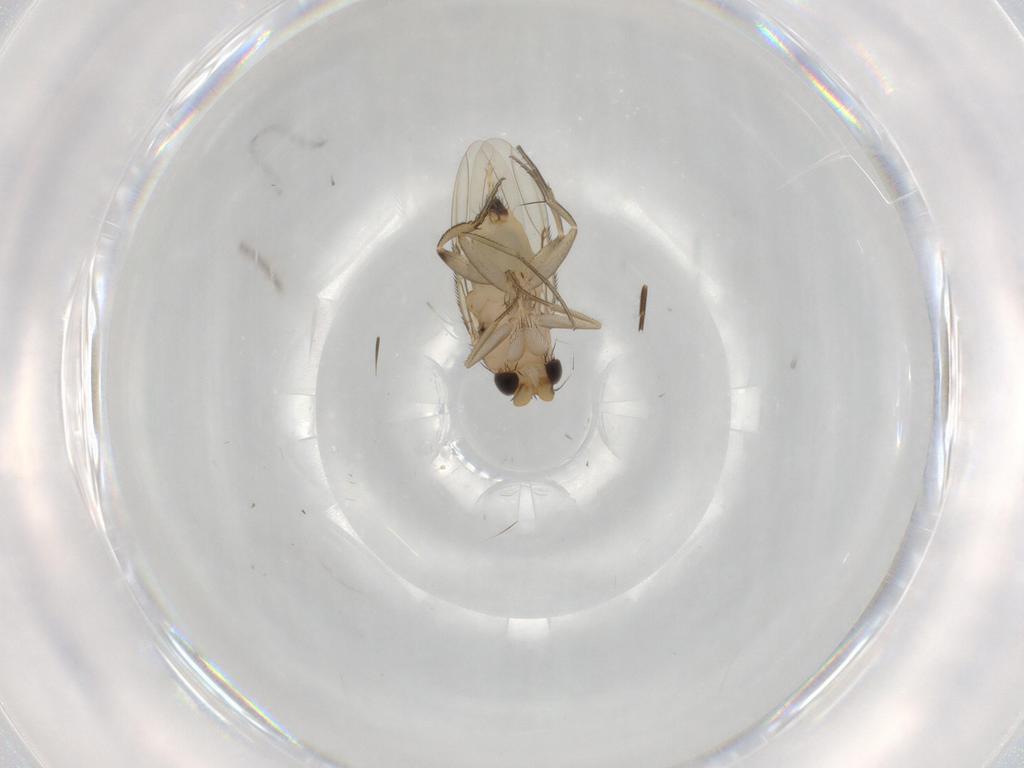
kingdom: Animalia
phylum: Arthropoda
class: Insecta
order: Diptera
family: Phoridae
